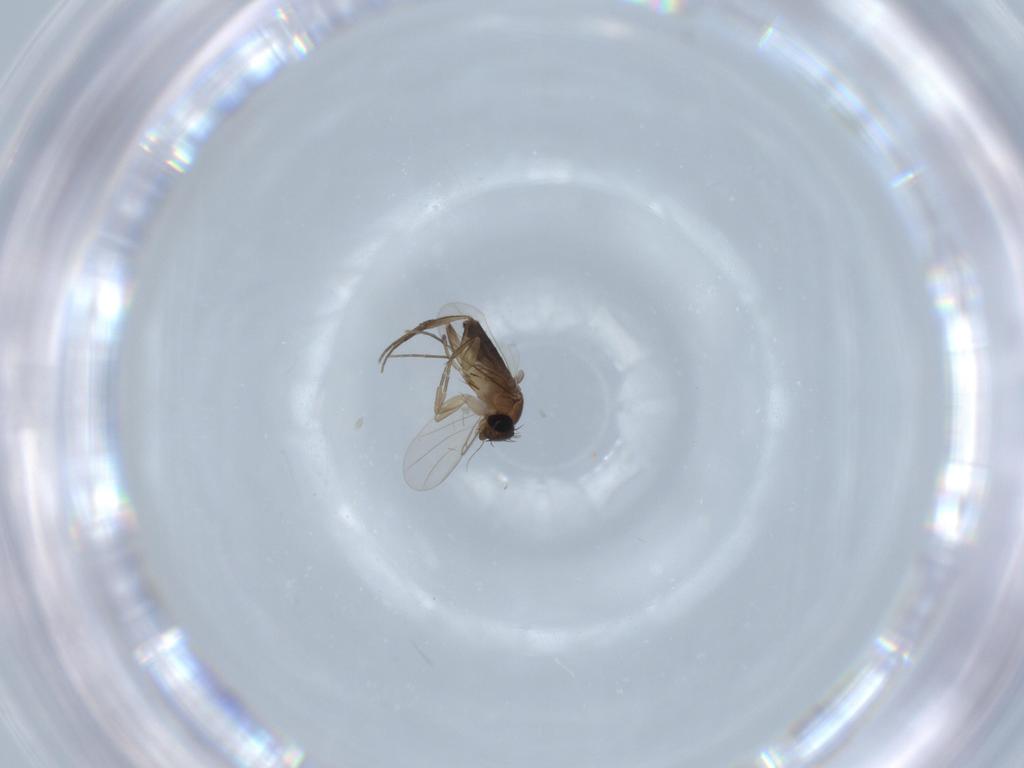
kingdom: Animalia
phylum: Arthropoda
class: Insecta
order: Diptera
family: Phoridae
